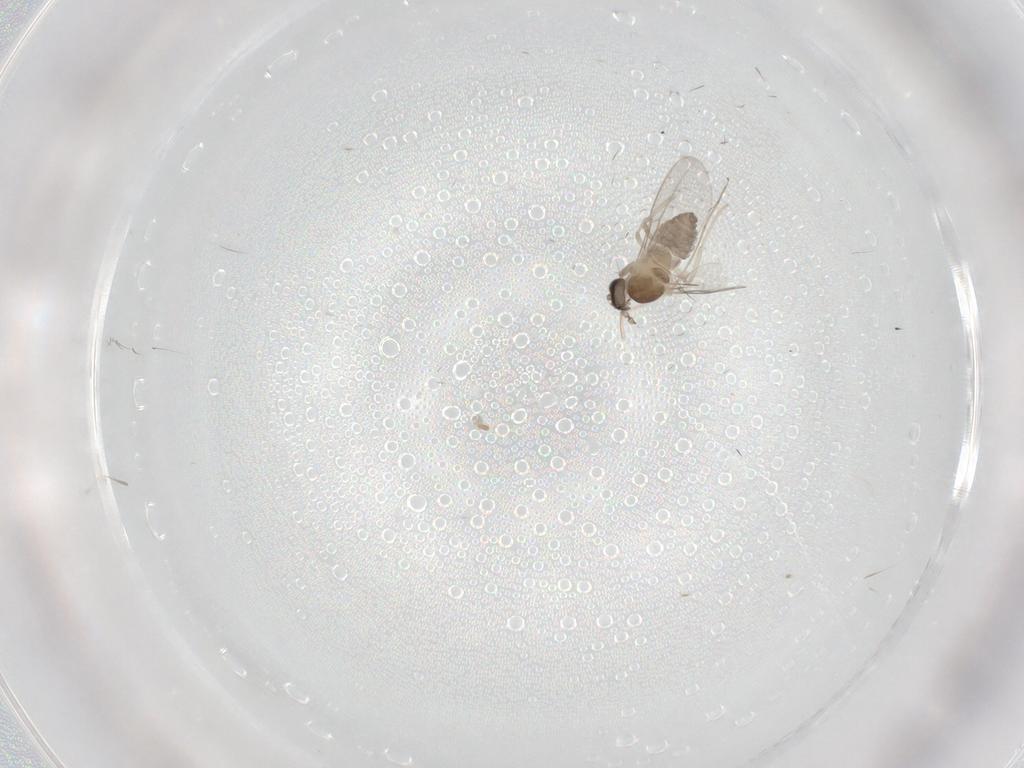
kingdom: Animalia
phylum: Arthropoda
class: Insecta
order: Diptera
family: Cecidomyiidae
